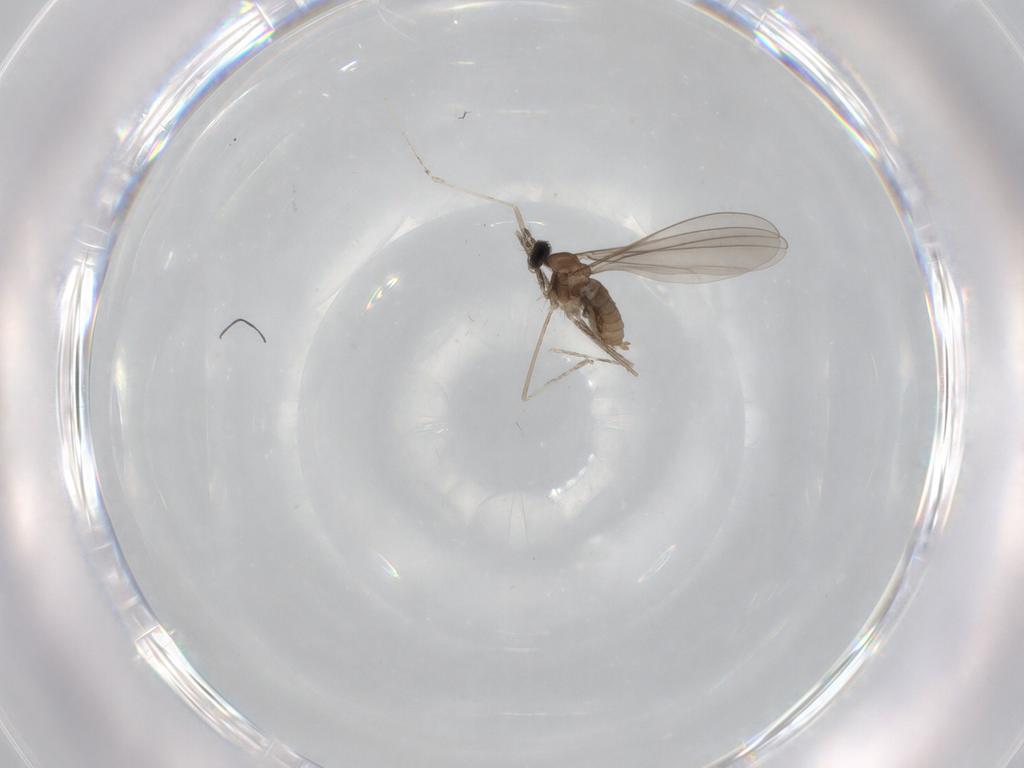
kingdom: Animalia
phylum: Arthropoda
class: Insecta
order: Diptera
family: Cecidomyiidae
